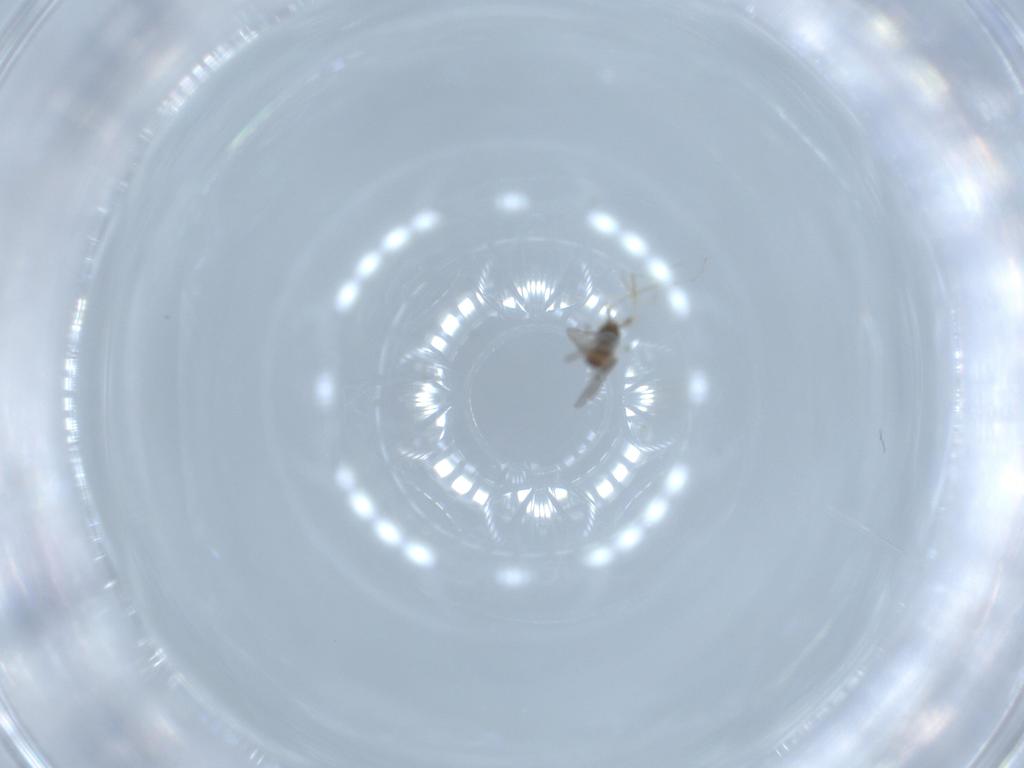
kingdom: Animalia
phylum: Arthropoda
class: Insecta
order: Diptera
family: Cecidomyiidae
